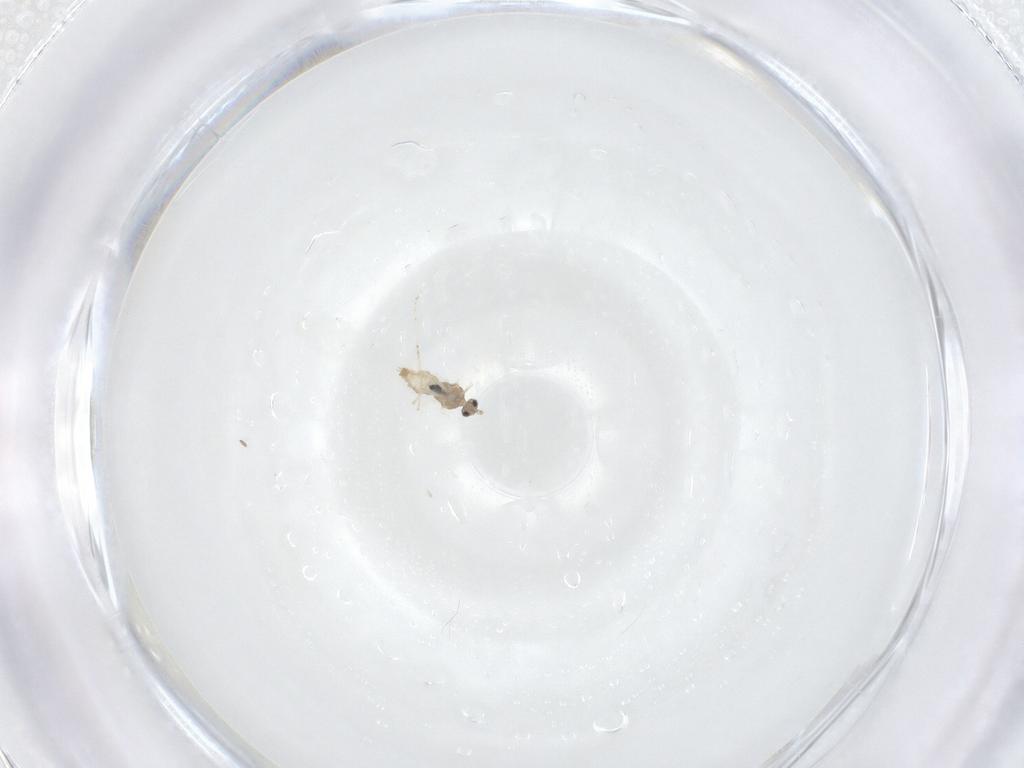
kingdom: Animalia
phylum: Arthropoda
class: Insecta
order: Diptera
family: Cecidomyiidae
